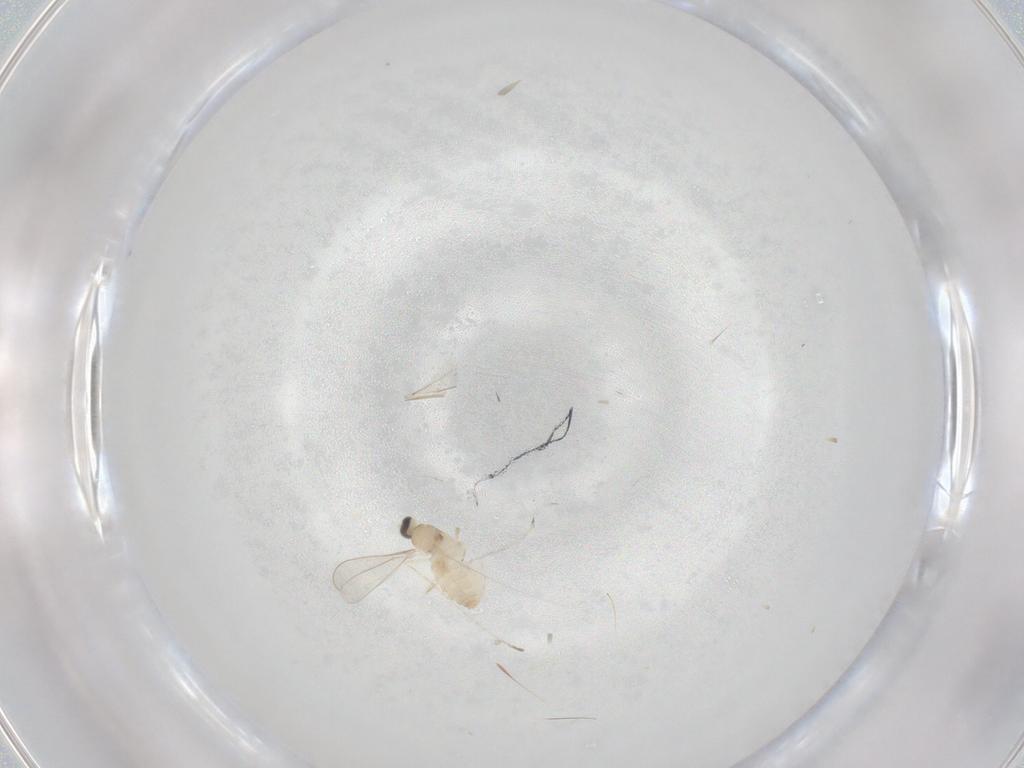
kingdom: Animalia
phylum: Arthropoda
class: Insecta
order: Diptera
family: Cecidomyiidae
